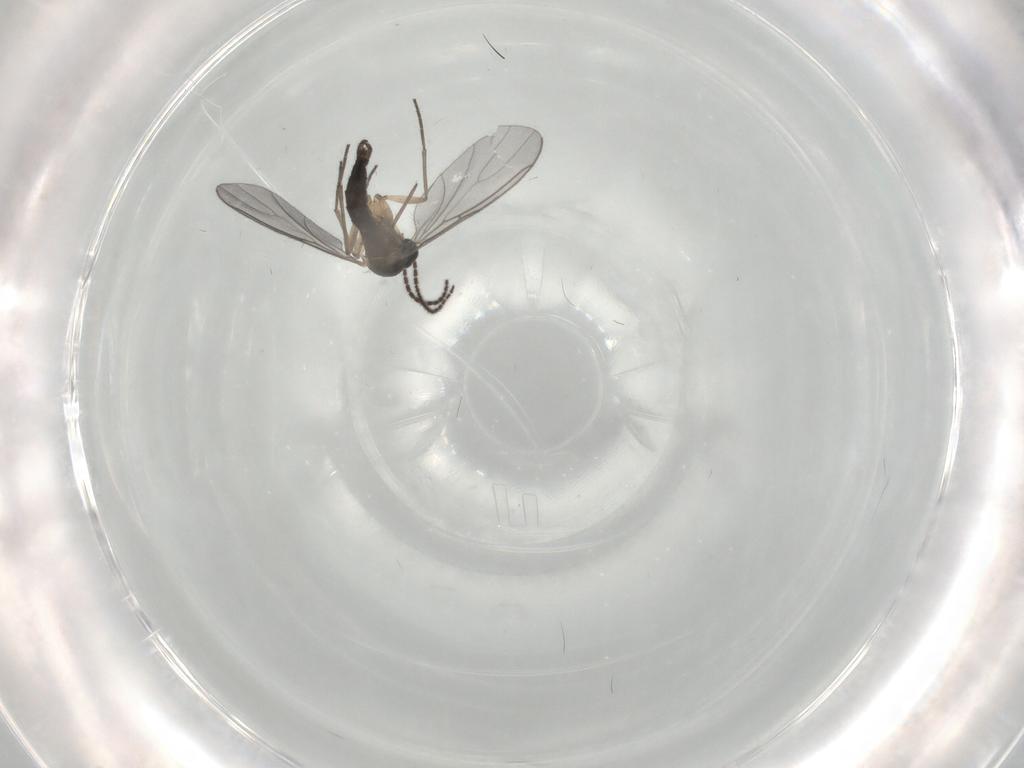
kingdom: Animalia
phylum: Arthropoda
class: Insecta
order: Diptera
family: Sciaridae
